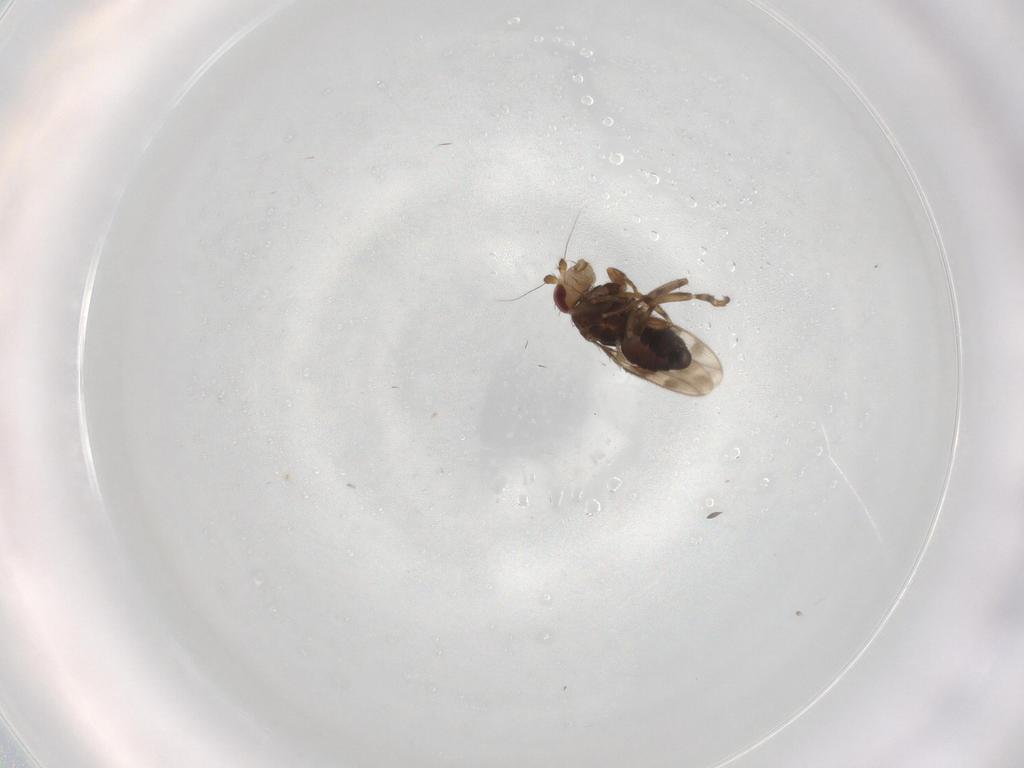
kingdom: Animalia
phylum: Arthropoda
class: Insecta
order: Diptera
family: Sphaeroceridae
